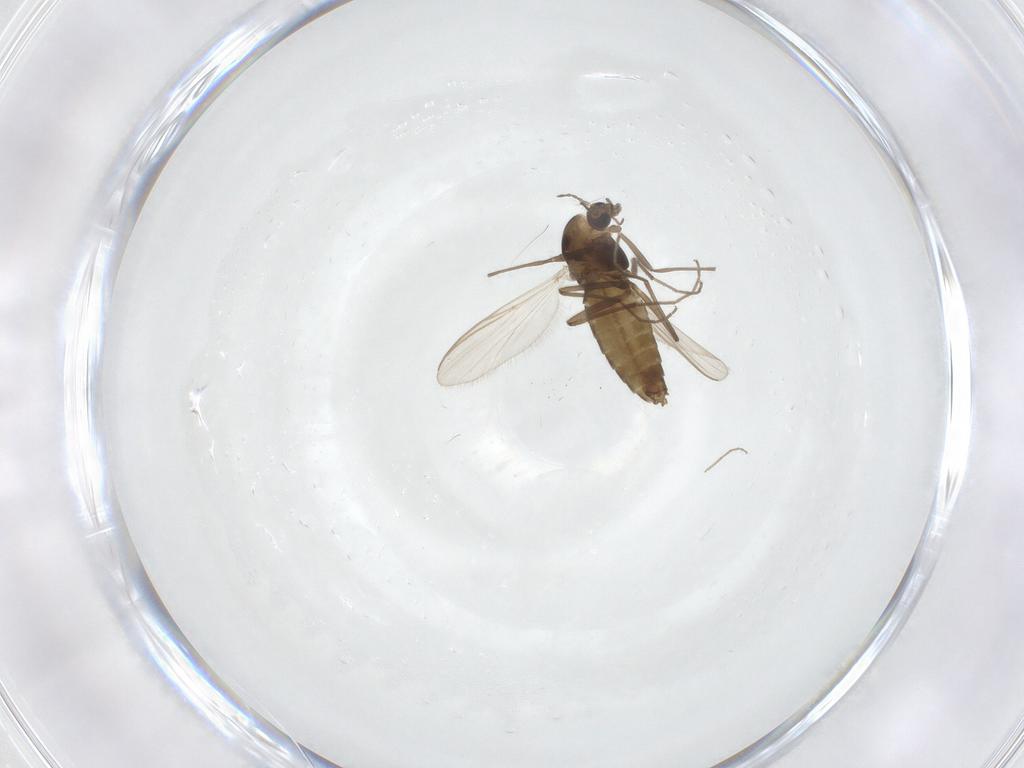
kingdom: Animalia
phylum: Arthropoda
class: Insecta
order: Diptera
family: Chironomidae
